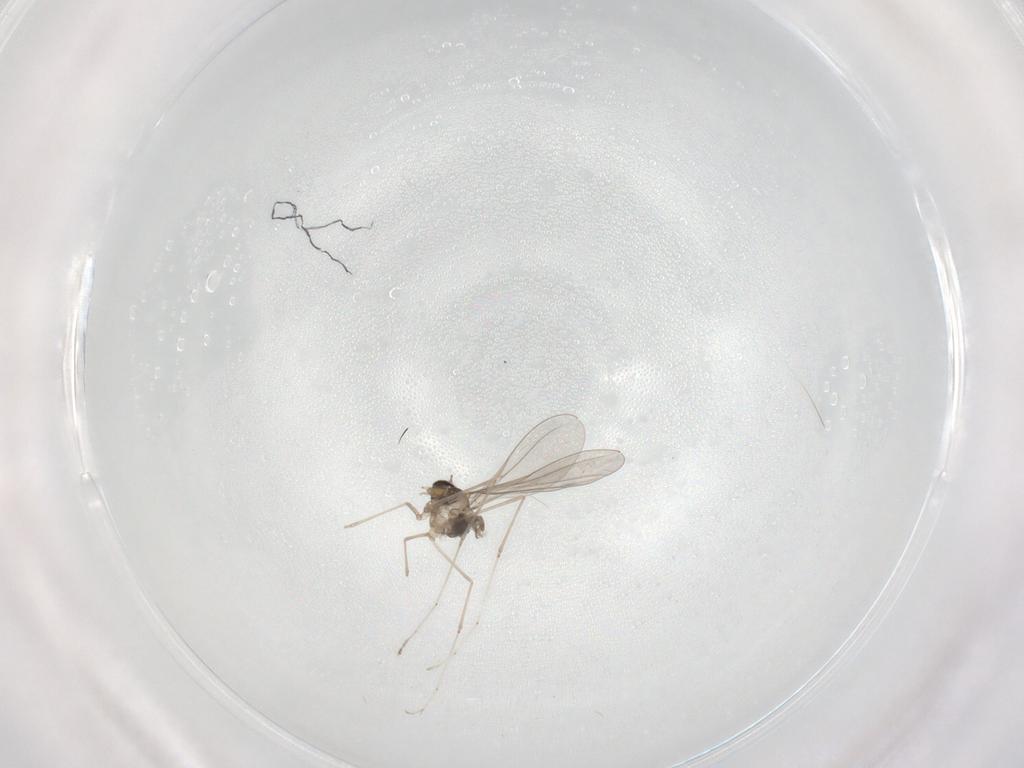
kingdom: Animalia
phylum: Arthropoda
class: Insecta
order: Diptera
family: Cecidomyiidae
